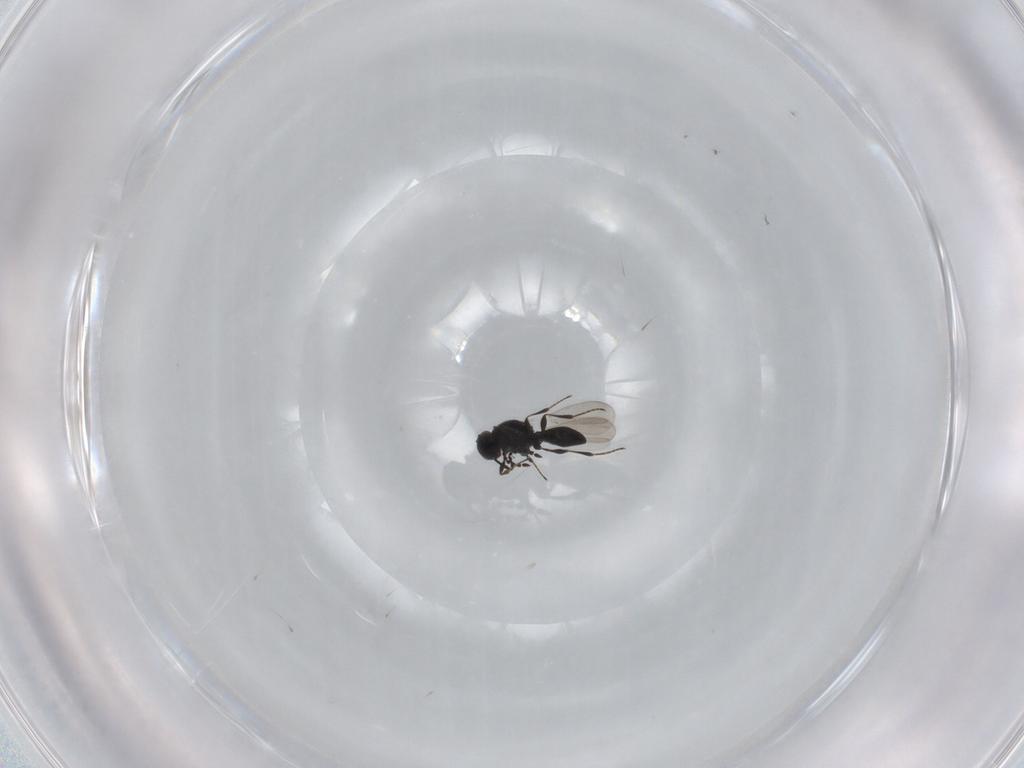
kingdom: Animalia
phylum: Arthropoda
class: Insecta
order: Hymenoptera
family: Platygastridae
